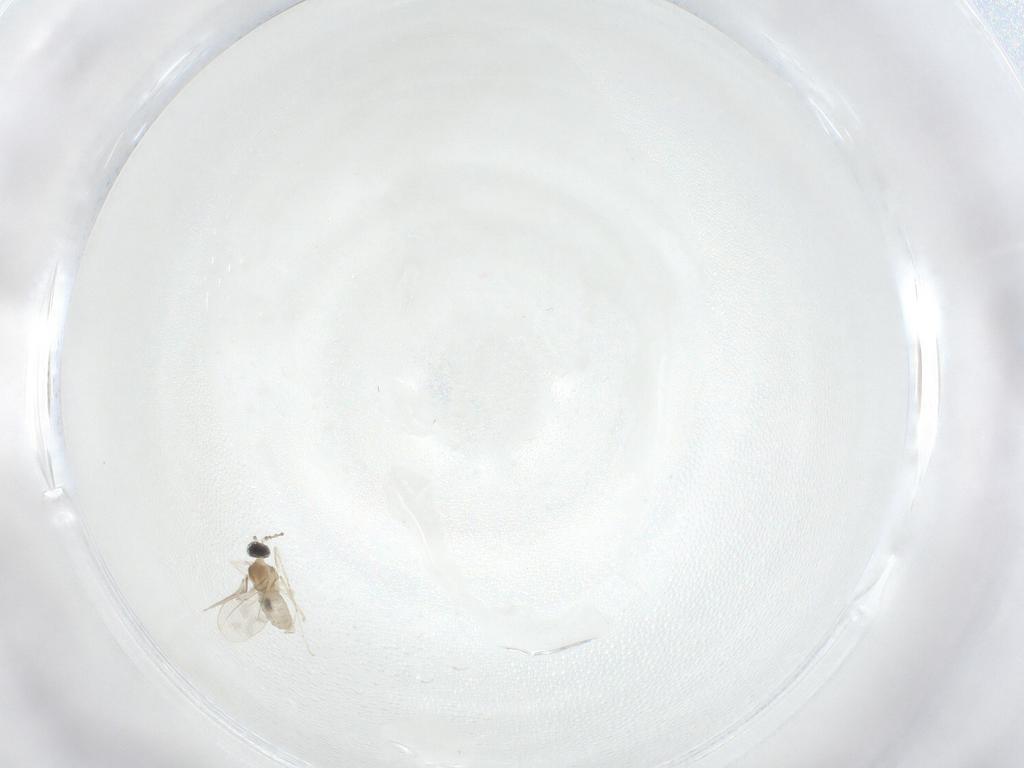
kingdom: Animalia
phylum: Arthropoda
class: Insecta
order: Diptera
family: Cecidomyiidae
